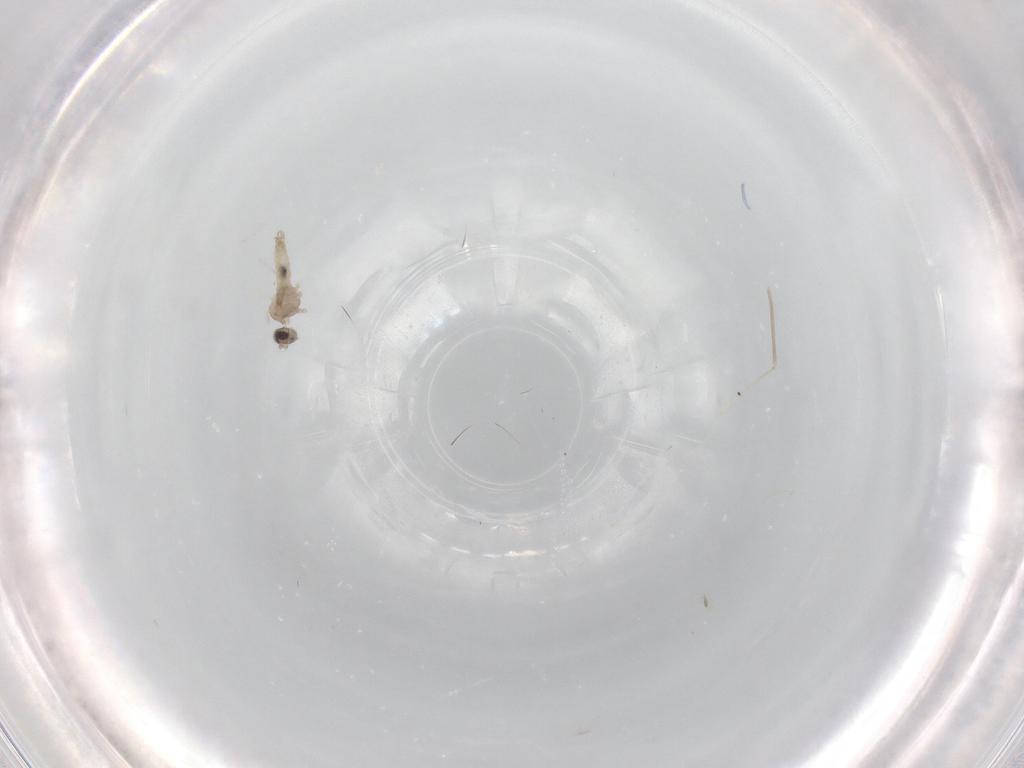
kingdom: Animalia
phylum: Arthropoda
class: Insecta
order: Diptera
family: Cecidomyiidae
